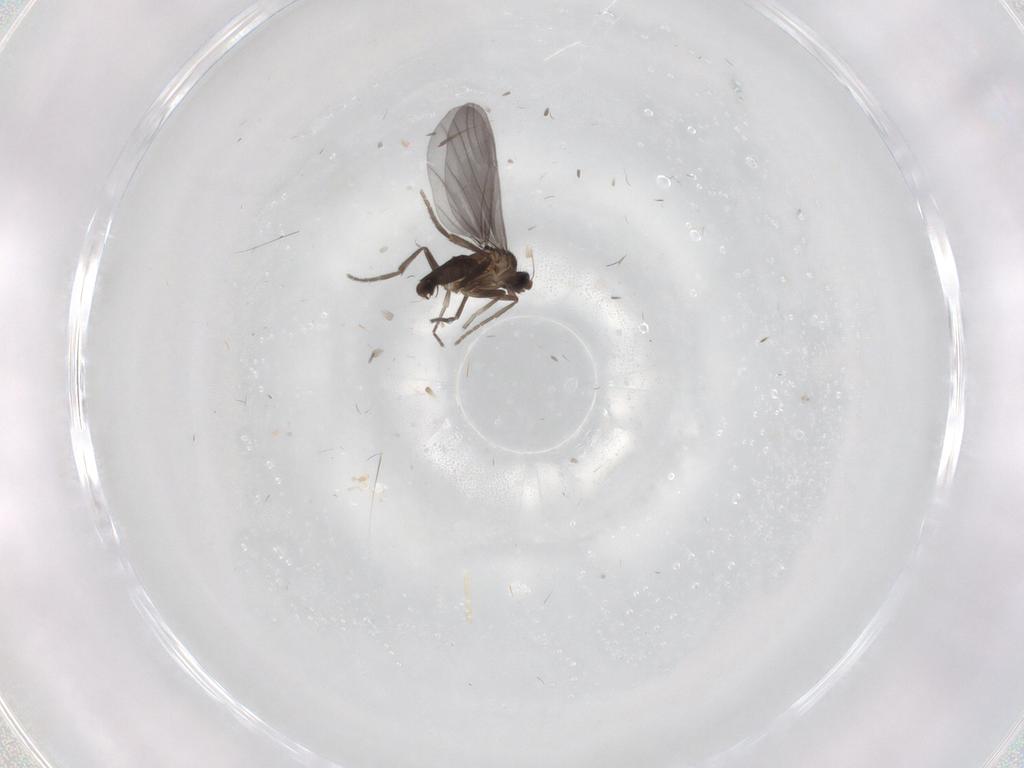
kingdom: Animalia
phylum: Arthropoda
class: Insecta
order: Diptera
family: Phoridae
